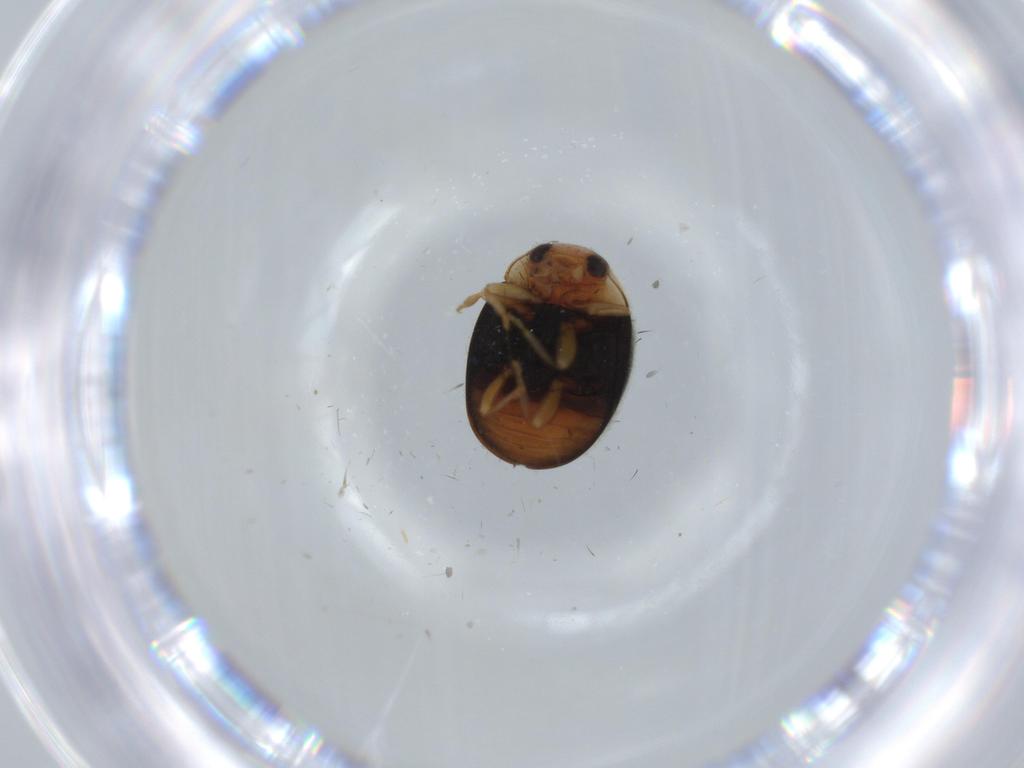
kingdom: Animalia
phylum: Arthropoda
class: Insecta
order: Coleoptera
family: Coccinellidae
